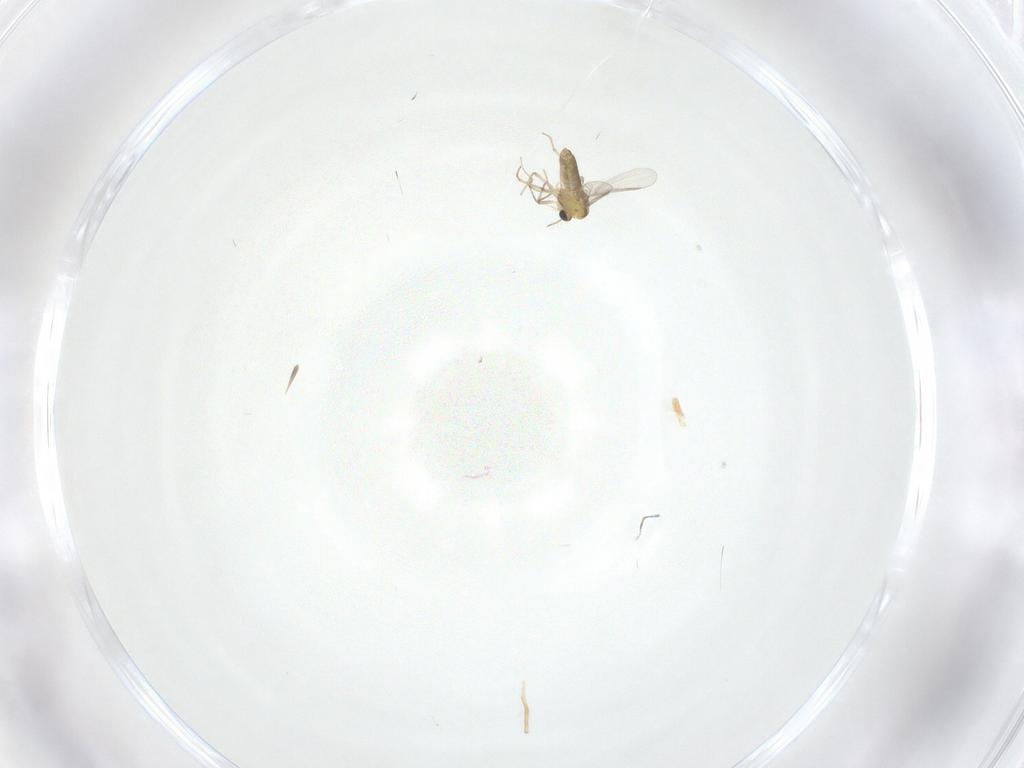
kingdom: Animalia
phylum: Arthropoda
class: Insecta
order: Diptera
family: Chironomidae
